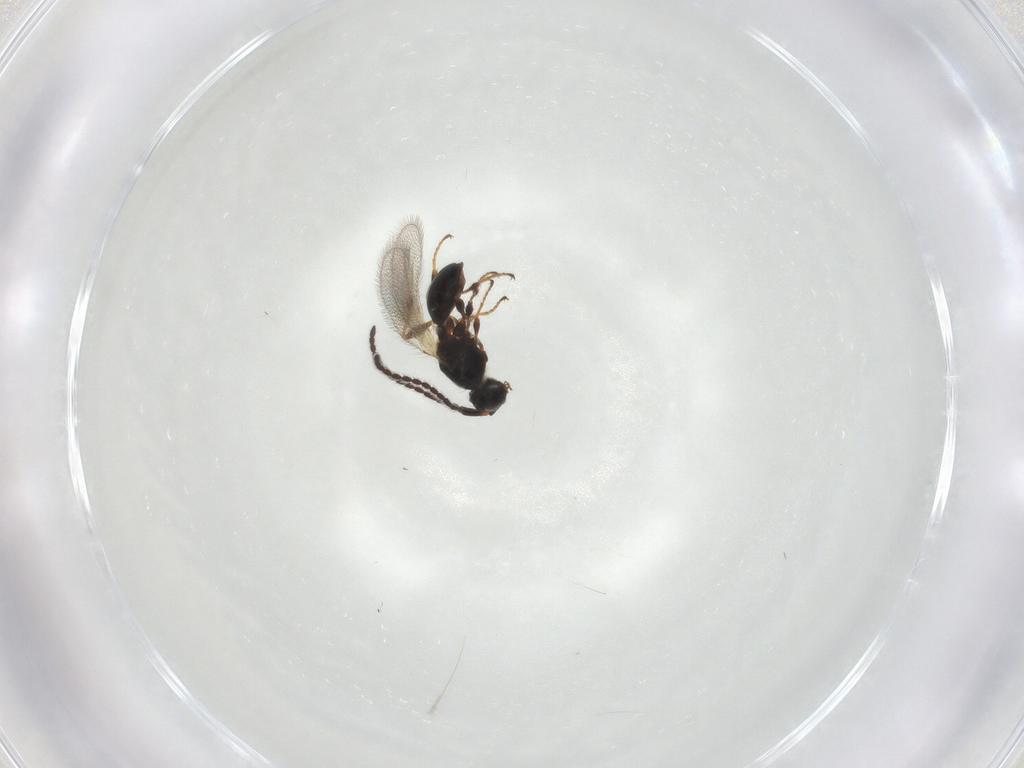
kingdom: Animalia
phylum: Arthropoda
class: Insecta
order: Hymenoptera
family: Diapriidae
